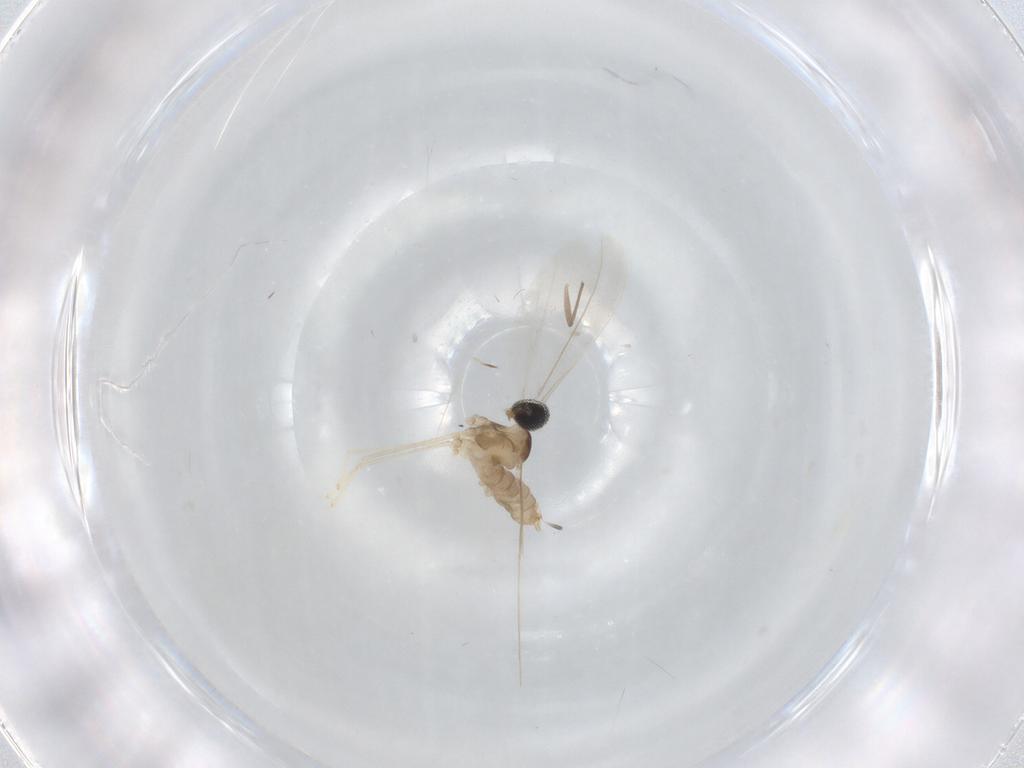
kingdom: Animalia
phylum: Arthropoda
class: Insecta
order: Diptera
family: Cecidomyiidae
